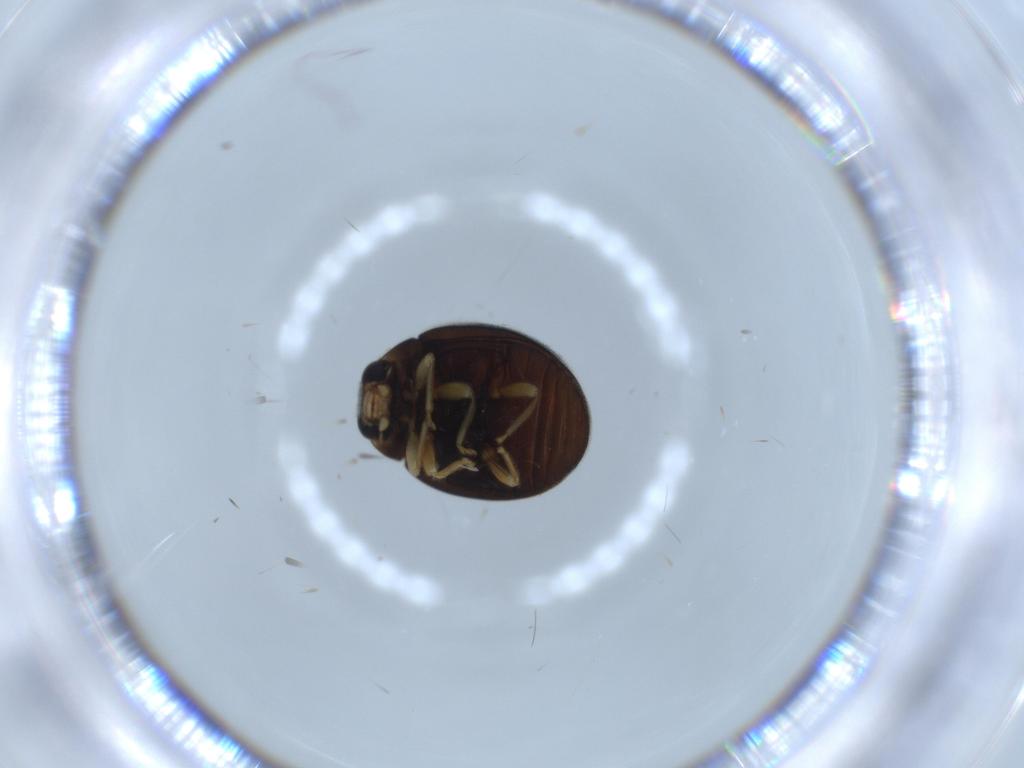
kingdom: Animalia
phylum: Arthropoda
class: Insecta
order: Coleoptera
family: Coccinellidae
